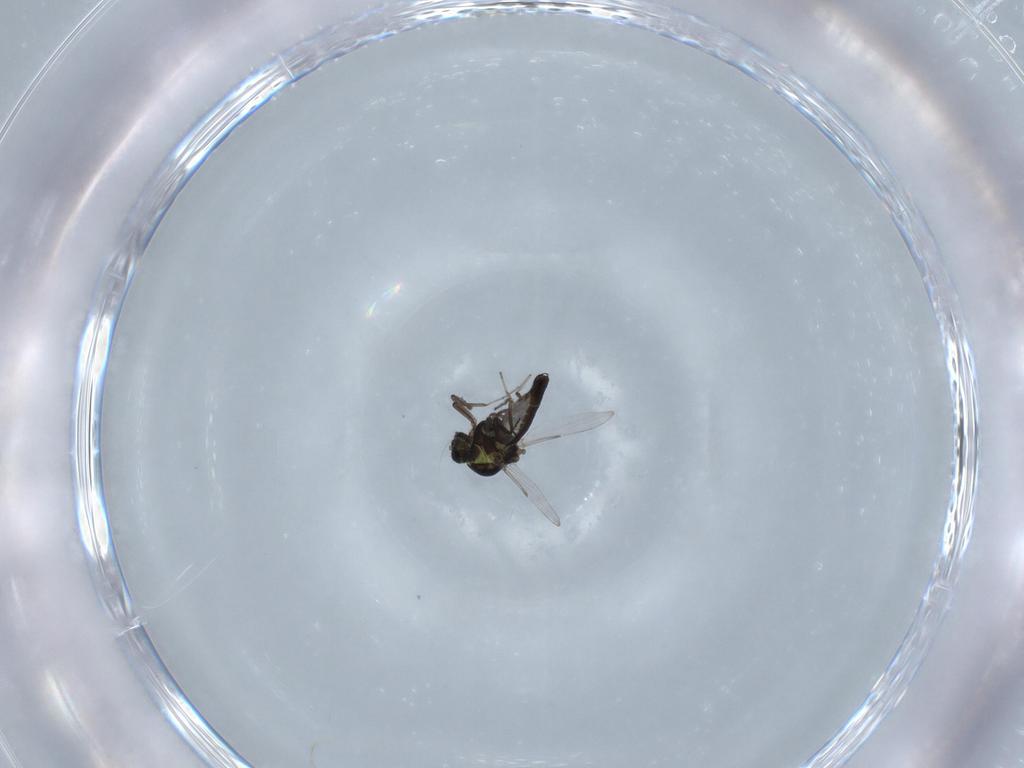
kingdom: Animalia
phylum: Arthropoda
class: Insecta
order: Diptera
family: Ceratopogonidae
